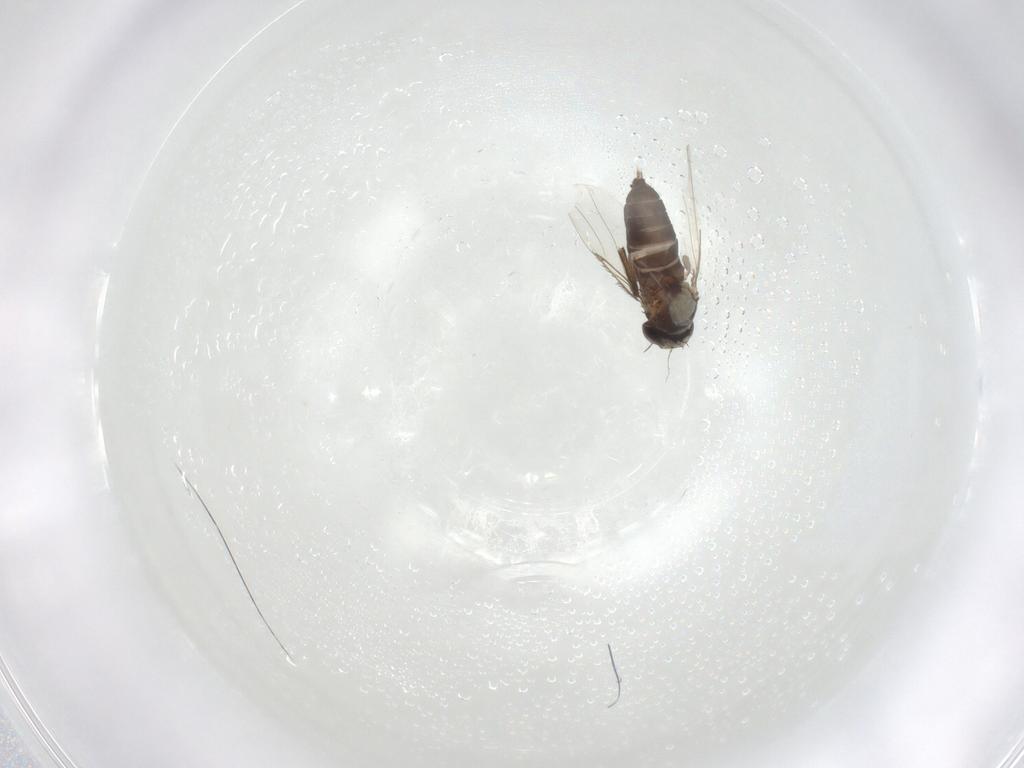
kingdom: Animalia
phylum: Arthropoda
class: Insecta
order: Diptera
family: Phoridae
